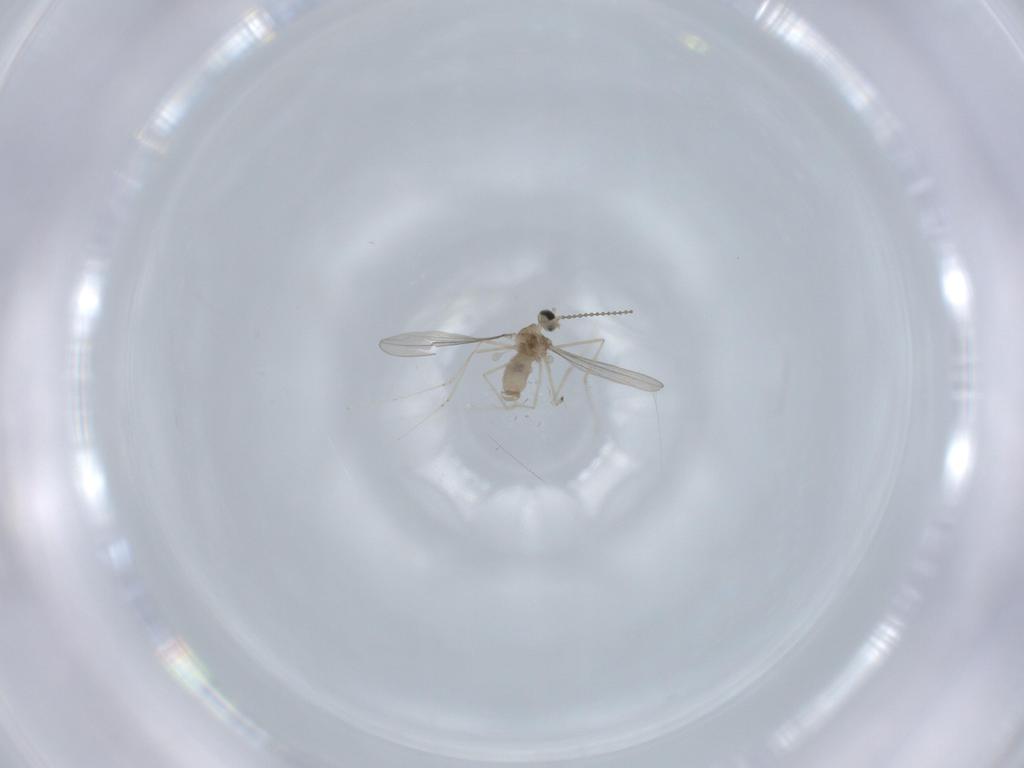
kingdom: Animalia
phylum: Arthropoda
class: Insecta
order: Diptera
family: Cecidomyiidae
